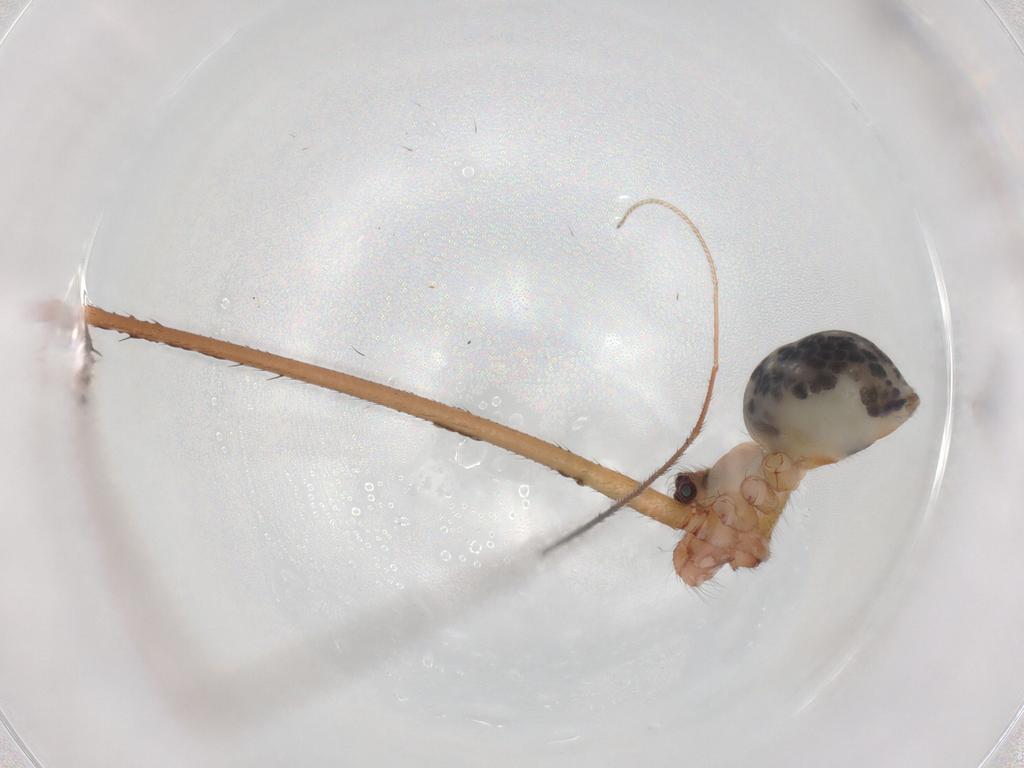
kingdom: Animalia
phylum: Arthropoda
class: Arachnida
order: Araneae
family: Pholcidae
